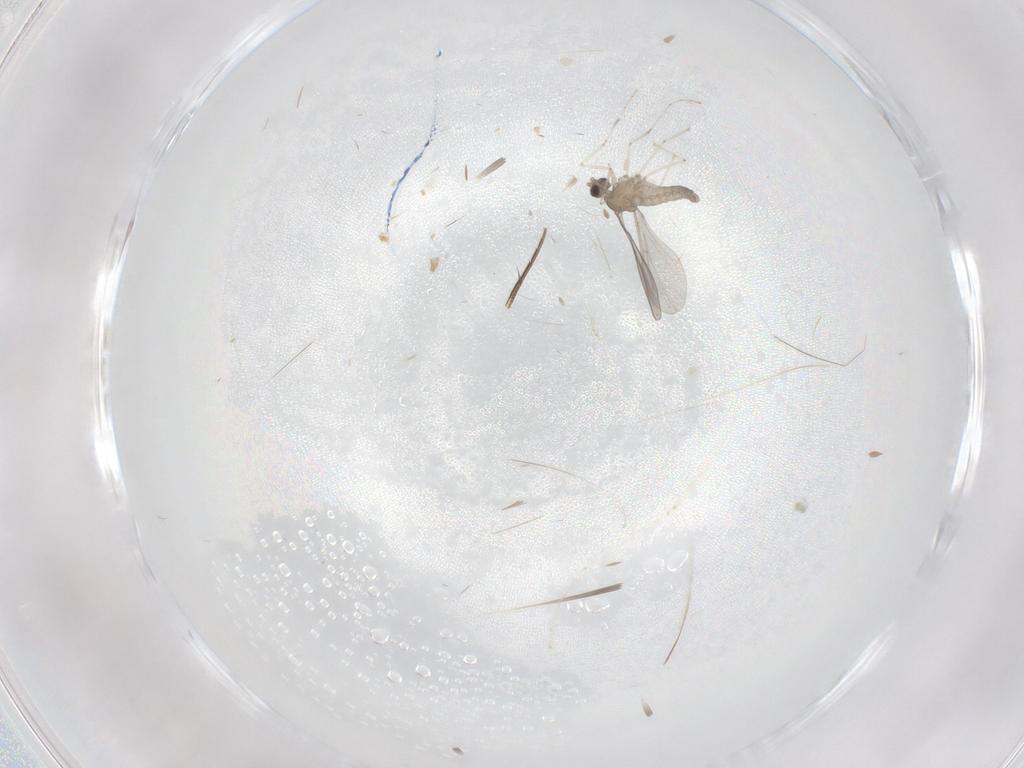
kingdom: Animalia
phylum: Arthropoda
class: Insecta
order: Diptera
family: Cecidomyiidae
